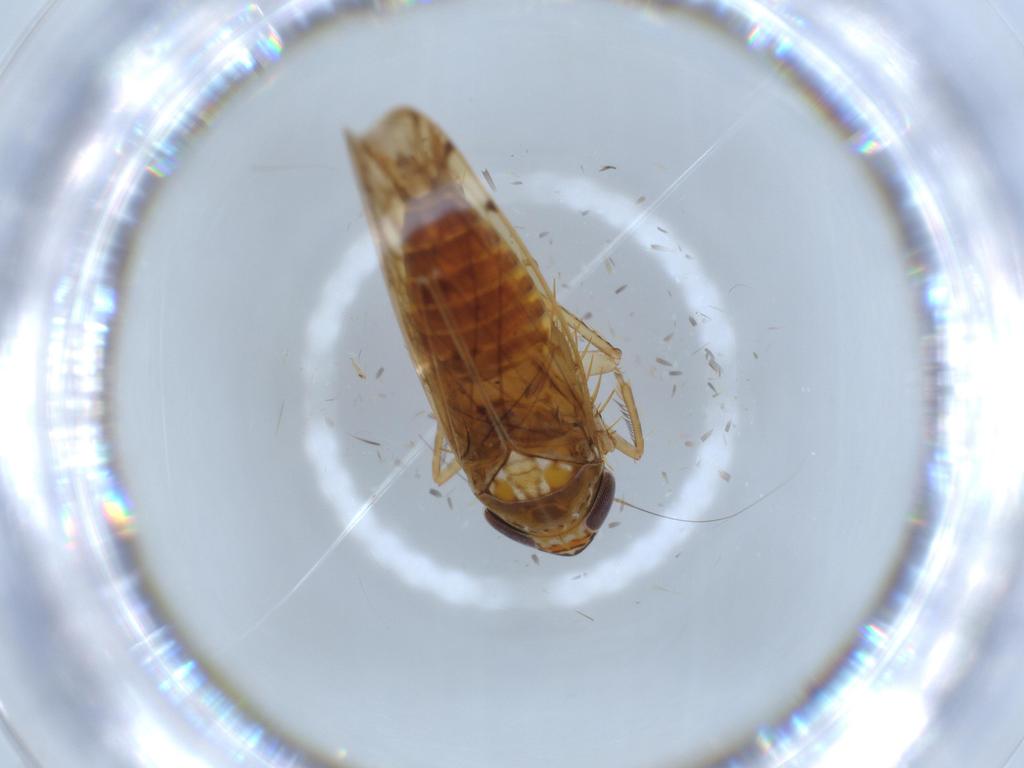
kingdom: Animalia
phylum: Arthropoda
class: Insecta
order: Hemiptera
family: Cicadellidae
